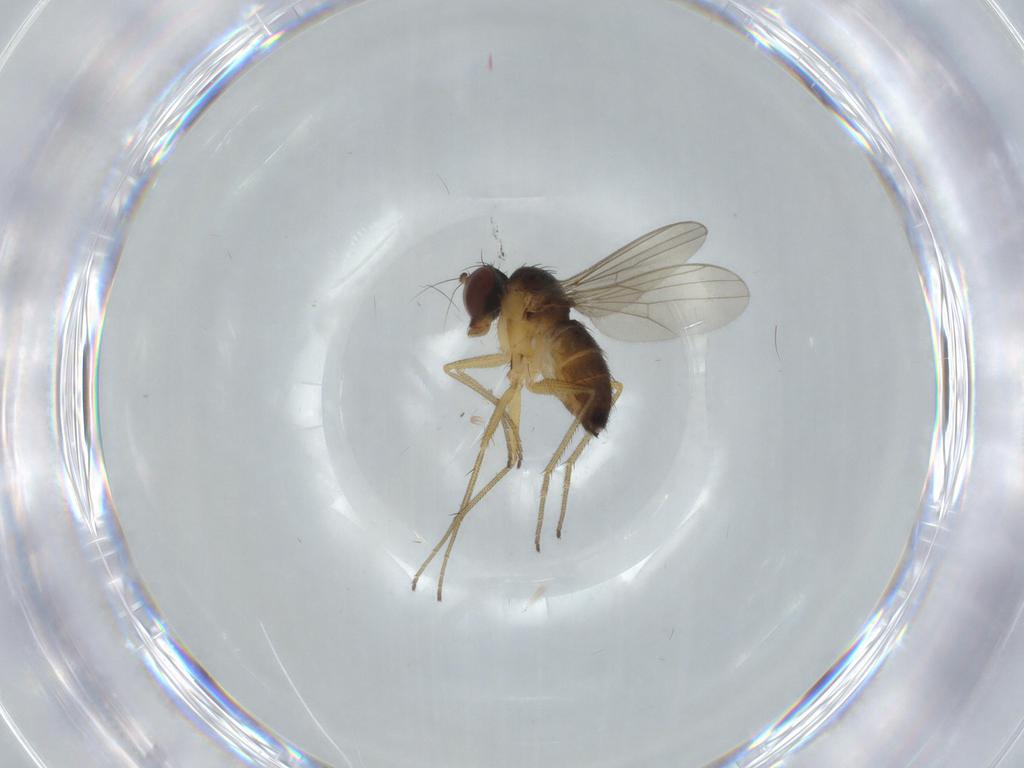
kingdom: Animalia
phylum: Arthropoda
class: Insecta
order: Diptera
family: Dolichopodidae
